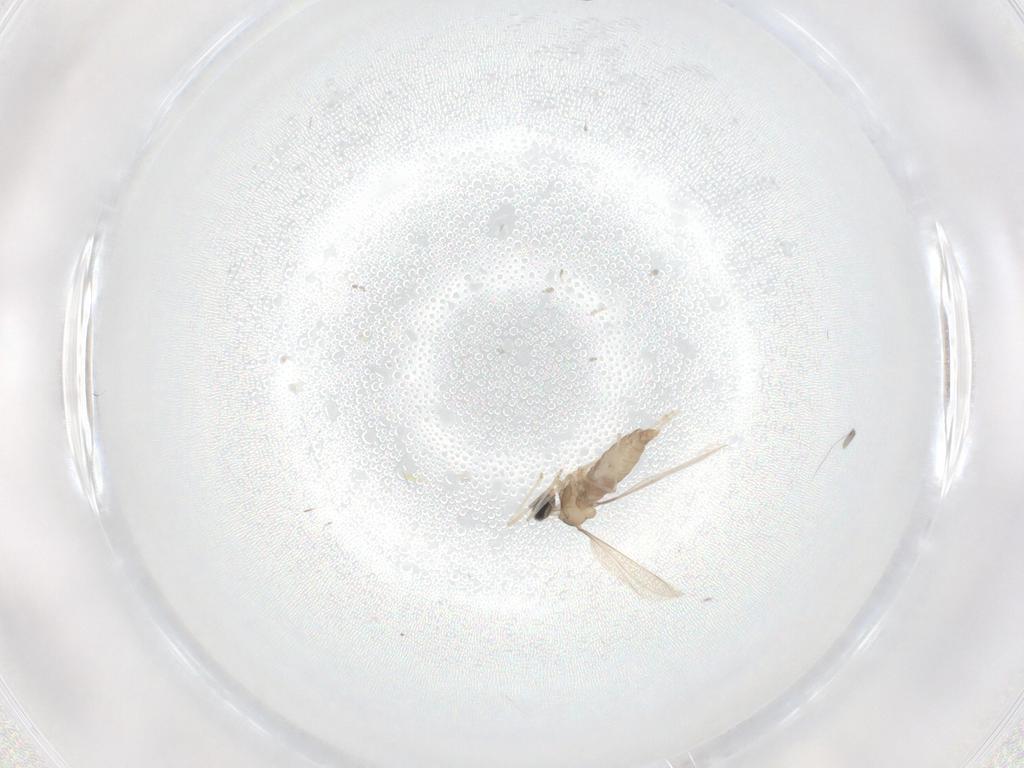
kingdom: Animalia
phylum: Arthropoda
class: Insecta
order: Diptera
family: Cecidomyiidae
